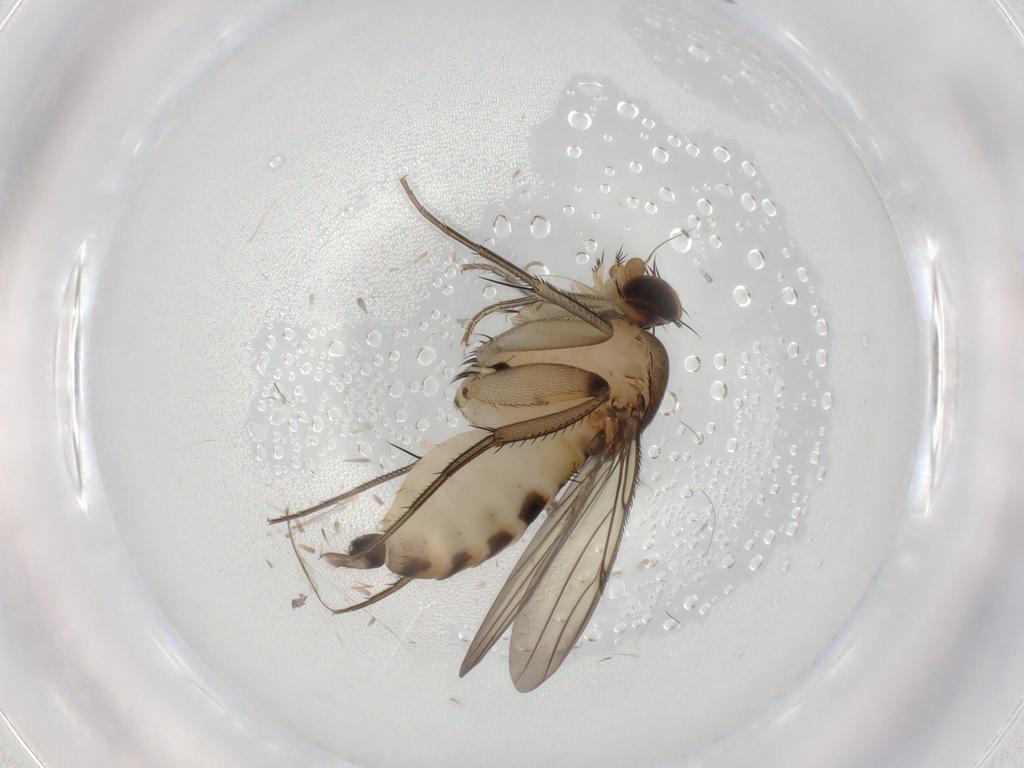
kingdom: Animalia
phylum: Arthropoda
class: Insecta
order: Diptera
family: Phoridae
